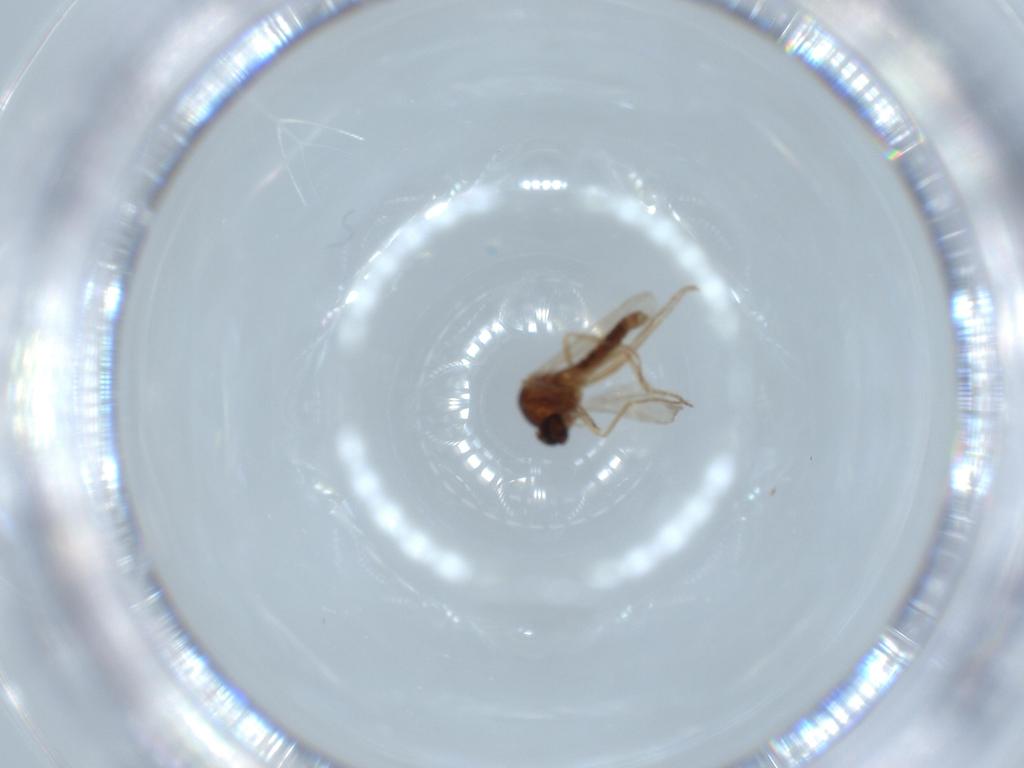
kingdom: Animalia
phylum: Arthropoda
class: Insecta
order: Diptera
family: Ceratopogonidae
